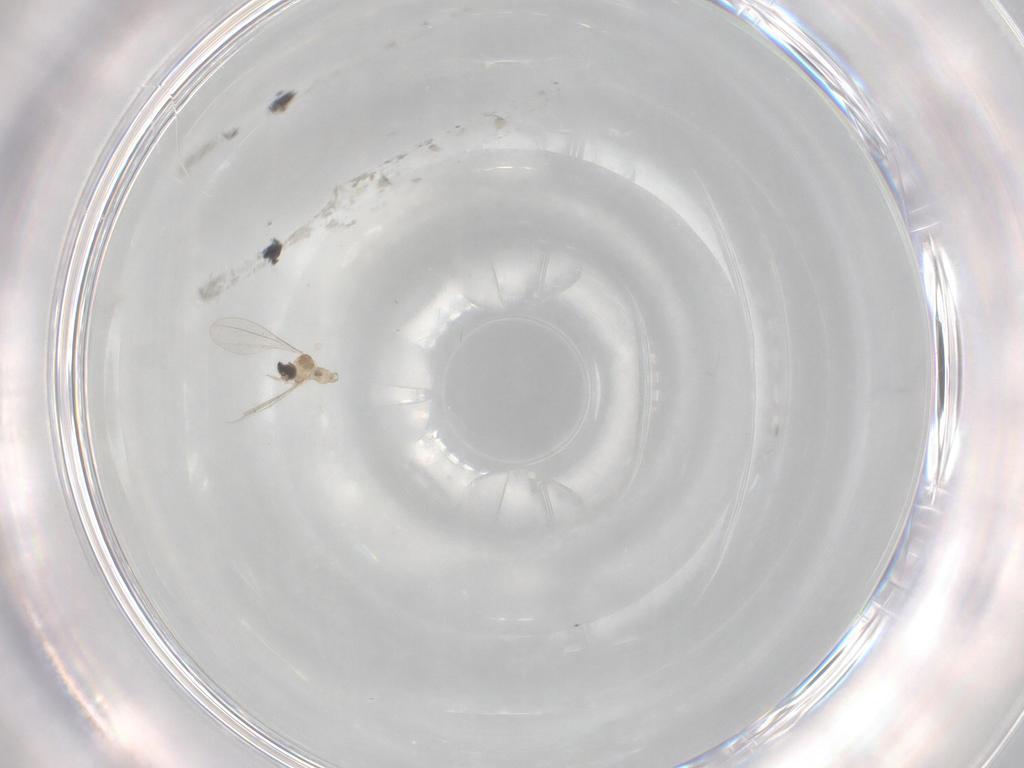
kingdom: Animalia
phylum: Arthropoda
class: Insecta
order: Diptera
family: Cecidomyiidae
